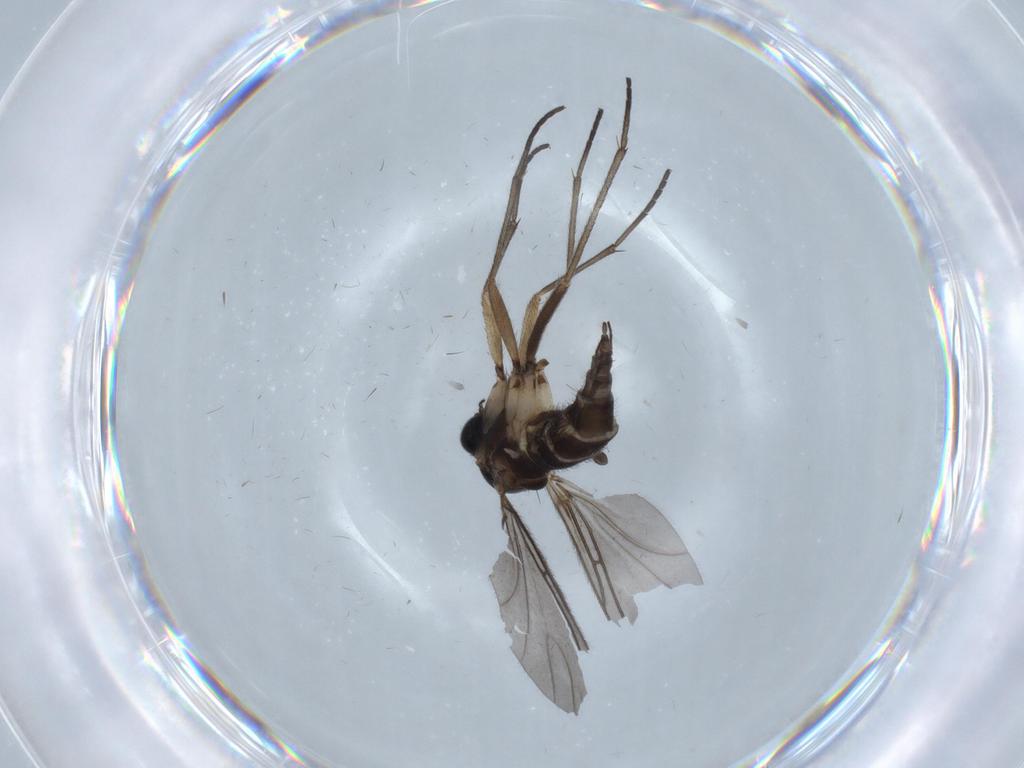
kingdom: Animalia
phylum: Arthropoda
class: Insecta
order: Diptera
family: Sciaridae
